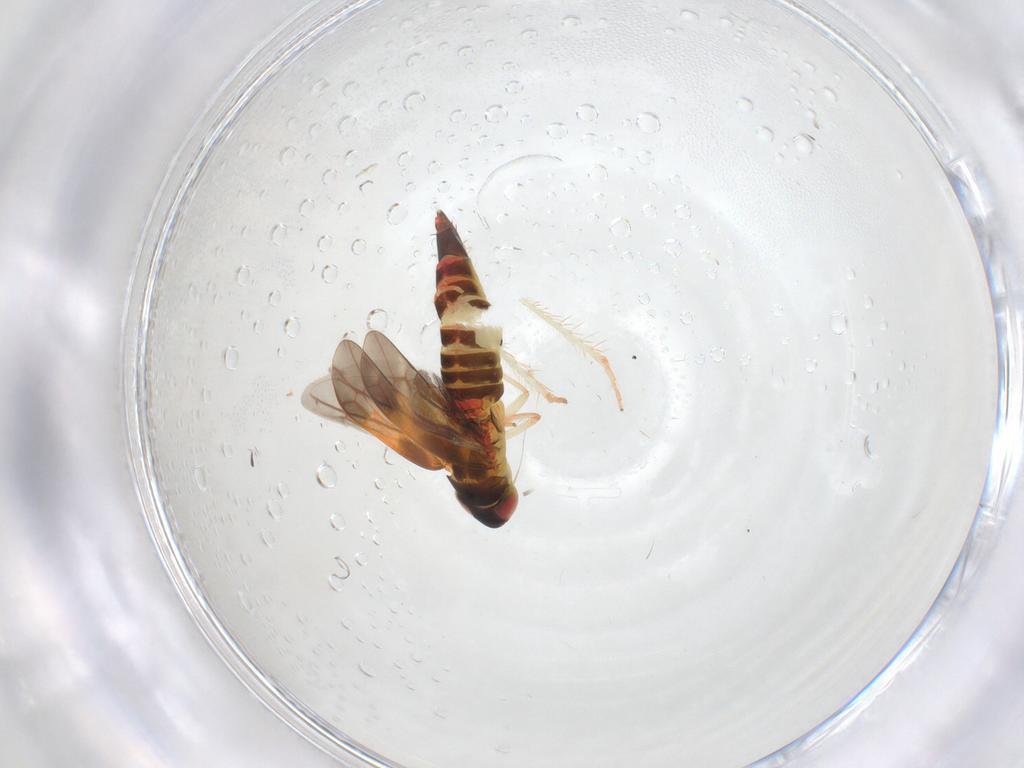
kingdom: Animalia
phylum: Arthropoda
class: Insecta
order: Hemiptera
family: Cicadellidae
